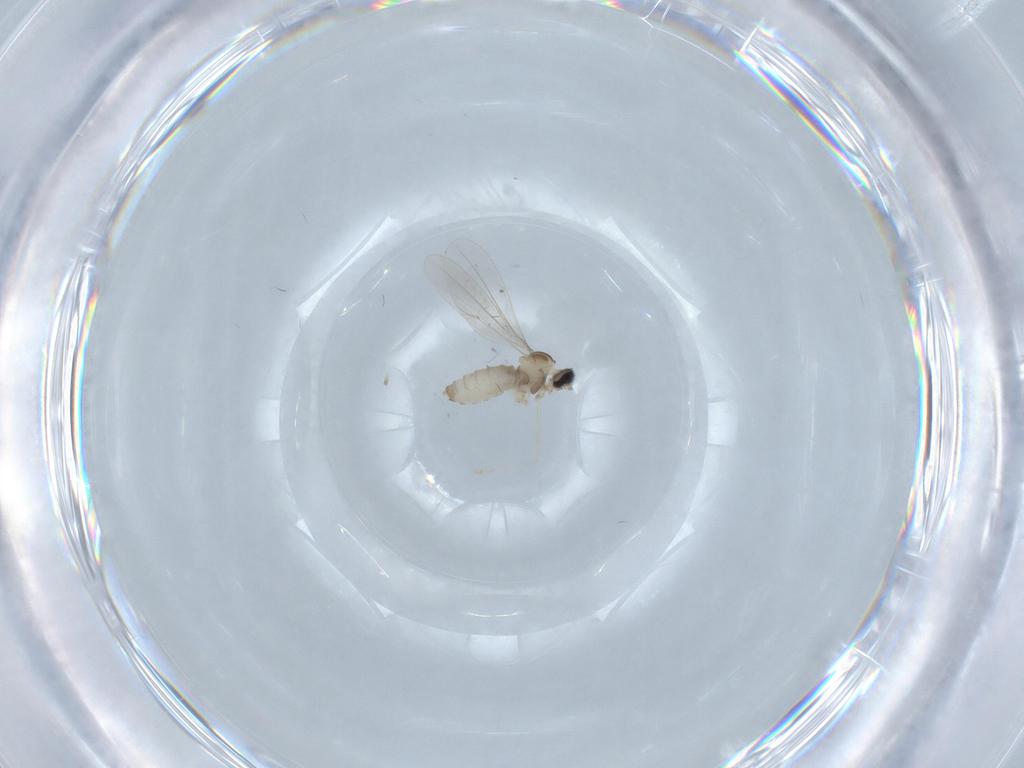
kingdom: Animalia
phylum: Arthropoda
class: Insecta
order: Diptera
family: Cecidomyiidae
